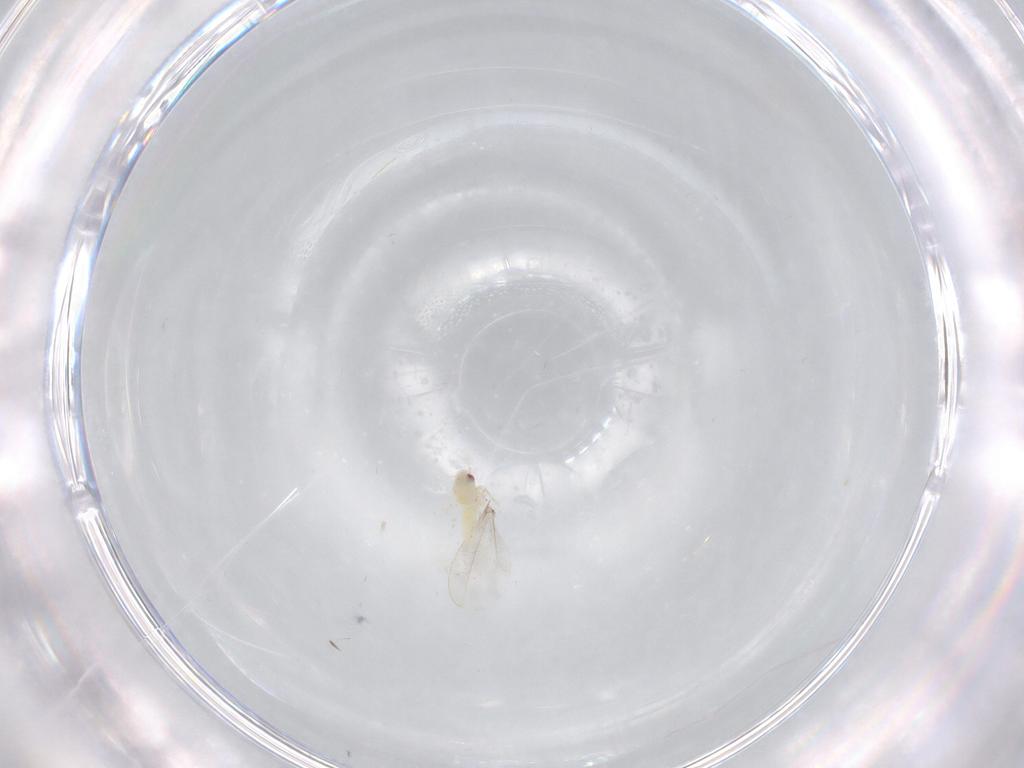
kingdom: Animalia
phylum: Arthropoda
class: Insecta
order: Hemiptera
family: Aleyrodidae
